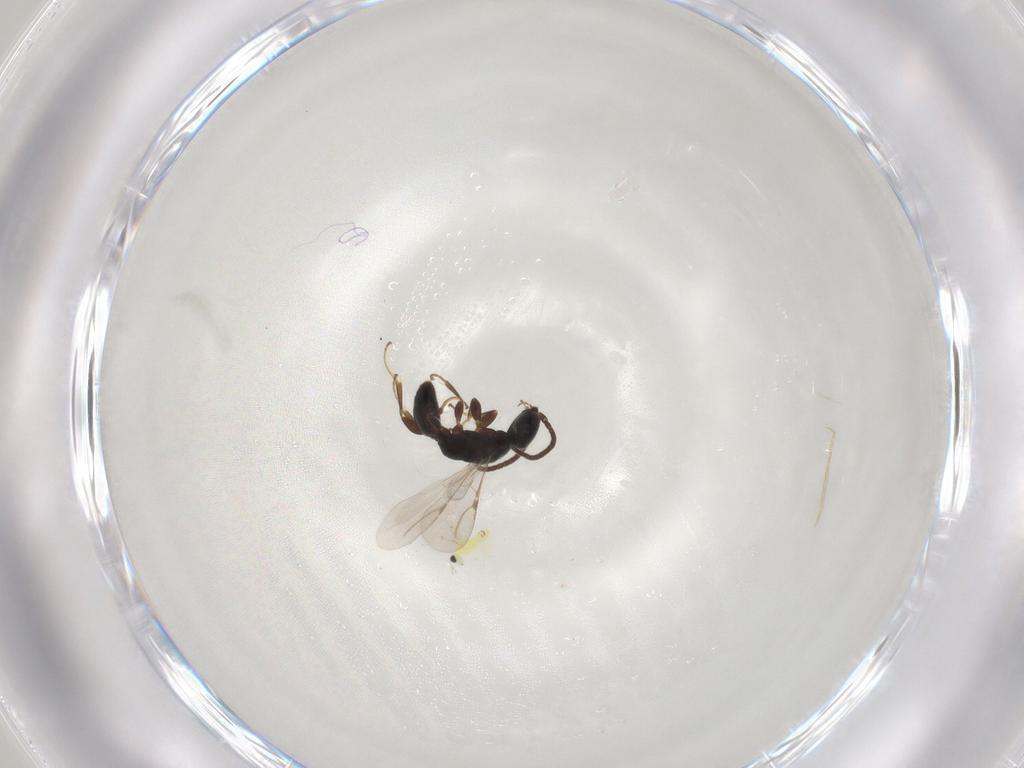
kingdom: Animalia
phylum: Arthropoda
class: Insecta
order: Hymenoptera
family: Bethylidae
